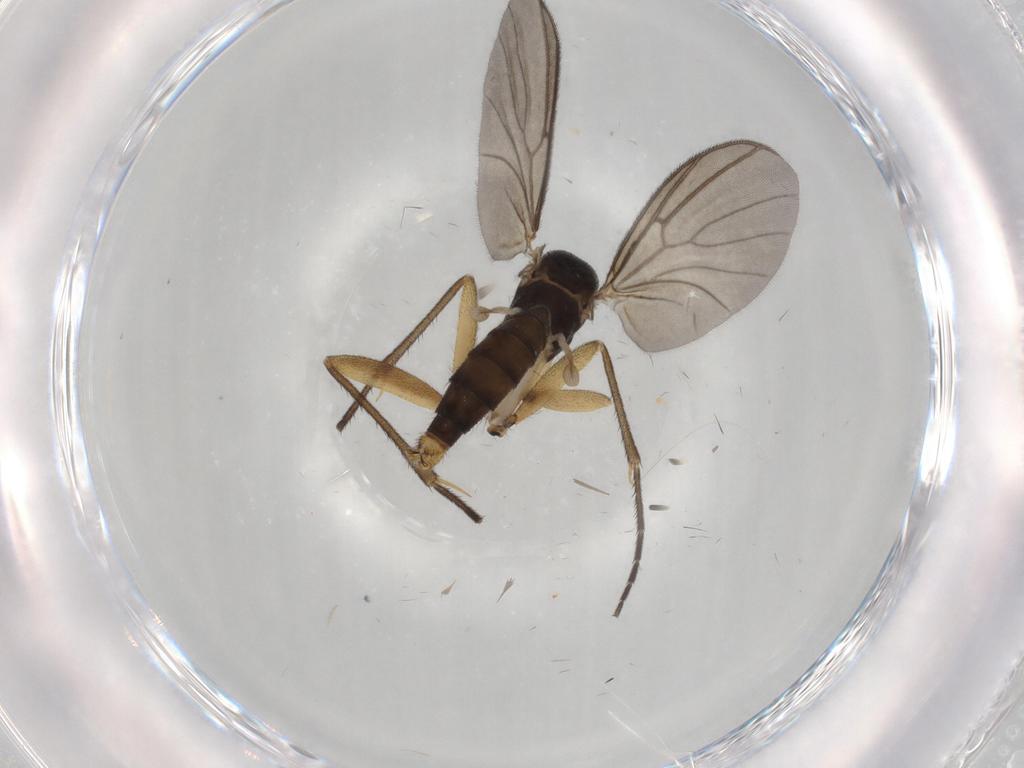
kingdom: Animalia
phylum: Arthropoda
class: Insecta
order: Diptera
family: Mycetophilidae
